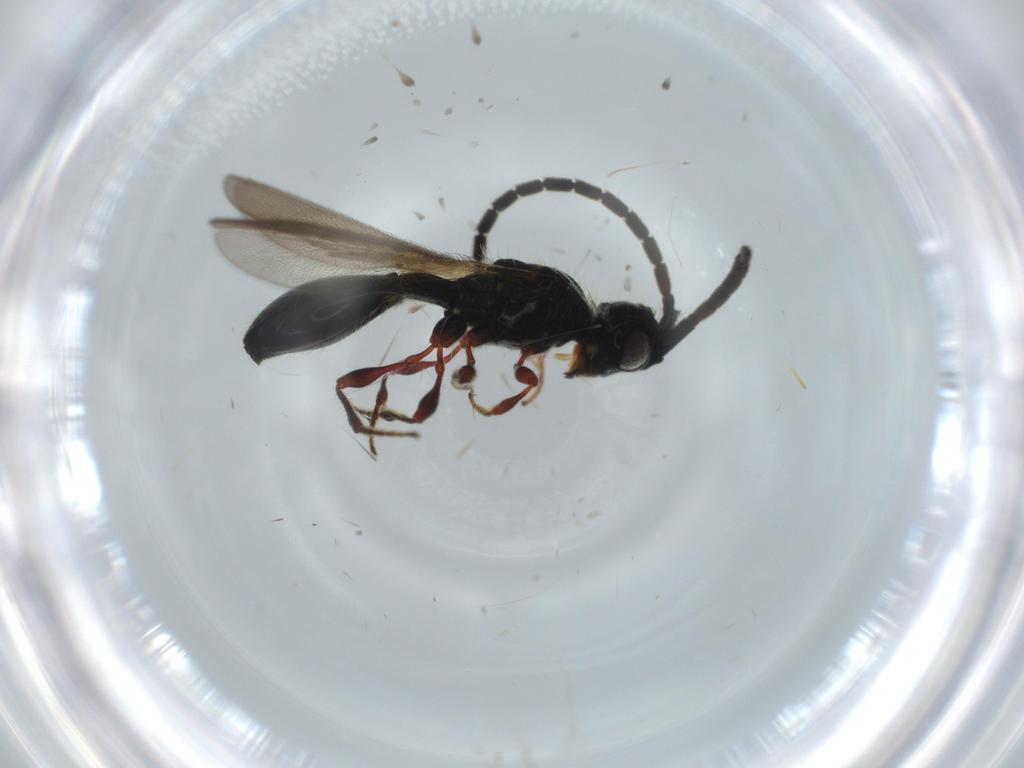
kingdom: Animalia
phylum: Arthropoda
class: Insecta
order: Hymenoptera
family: Diapriidae
